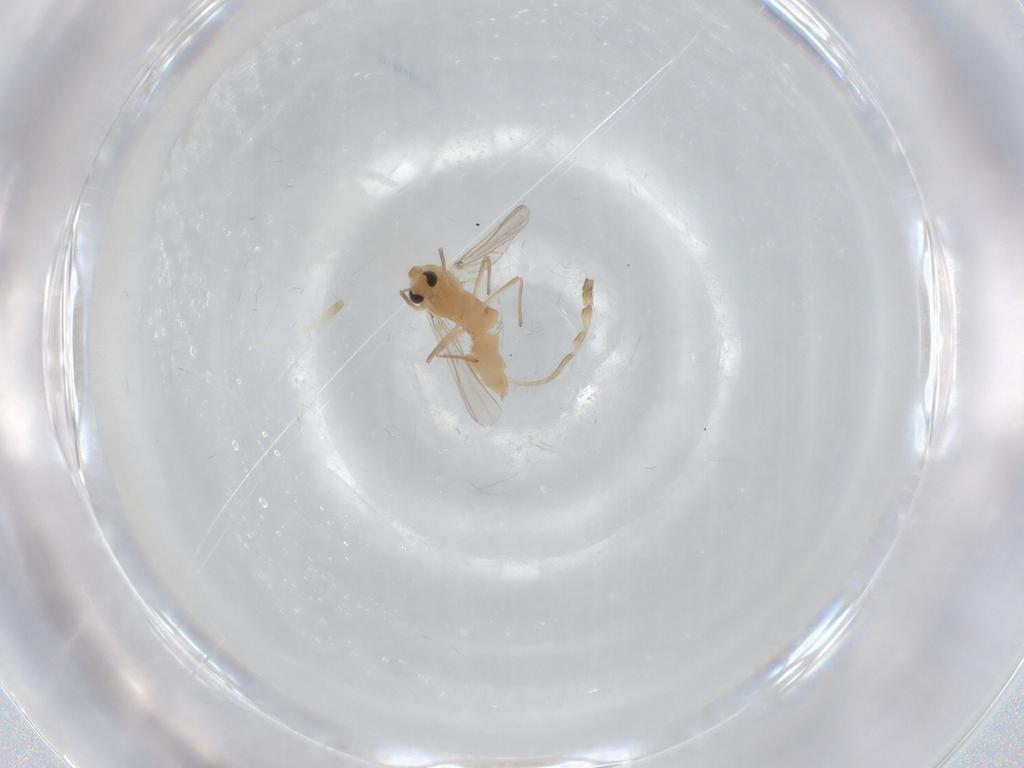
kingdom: Animalia
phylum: Arthropoda
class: Insecta
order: Diptera
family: Chironomidae
